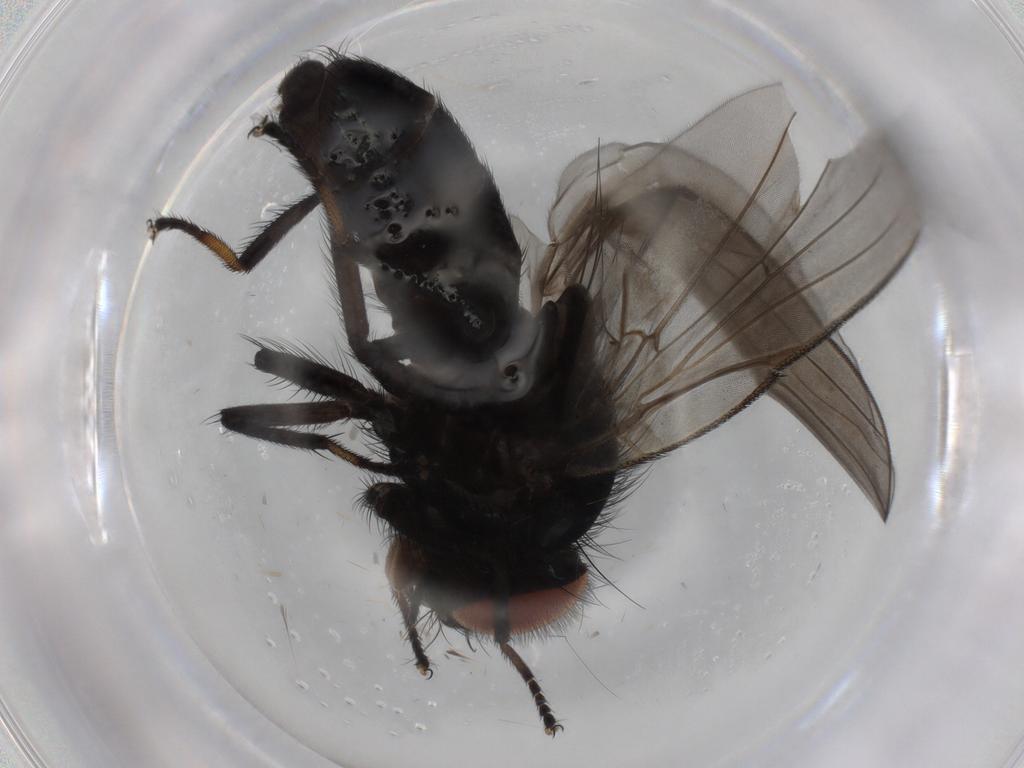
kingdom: Animalia
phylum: Arthropoda
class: Insecta
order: Diptera
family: Lonchaeidae
